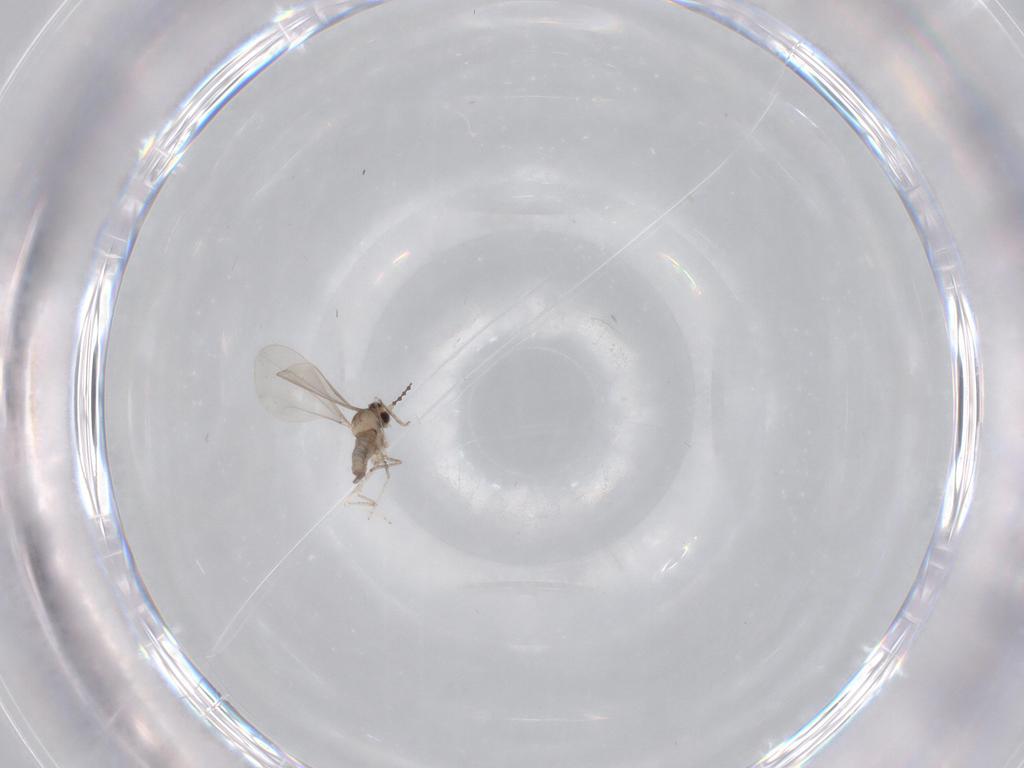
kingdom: Animalia
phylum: Arthropoda
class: Insecta
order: Diptera
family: Cecidomyiidae
